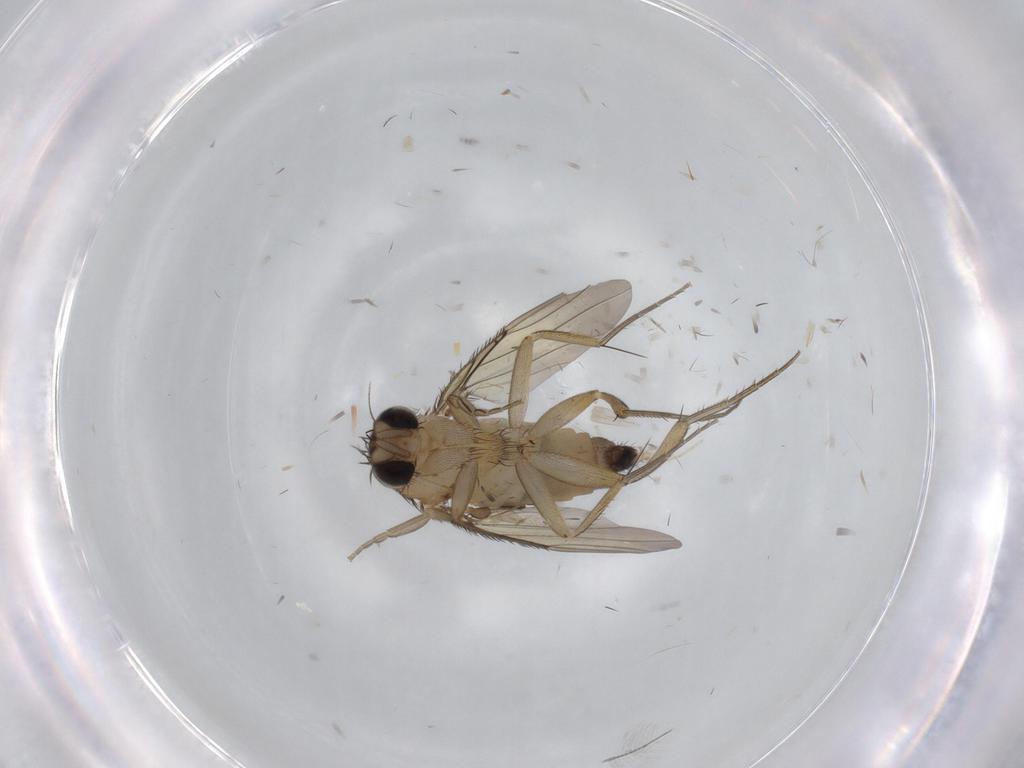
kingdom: Animalia
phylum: Arthropoda
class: Insecta
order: Diptera
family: Phoridae
